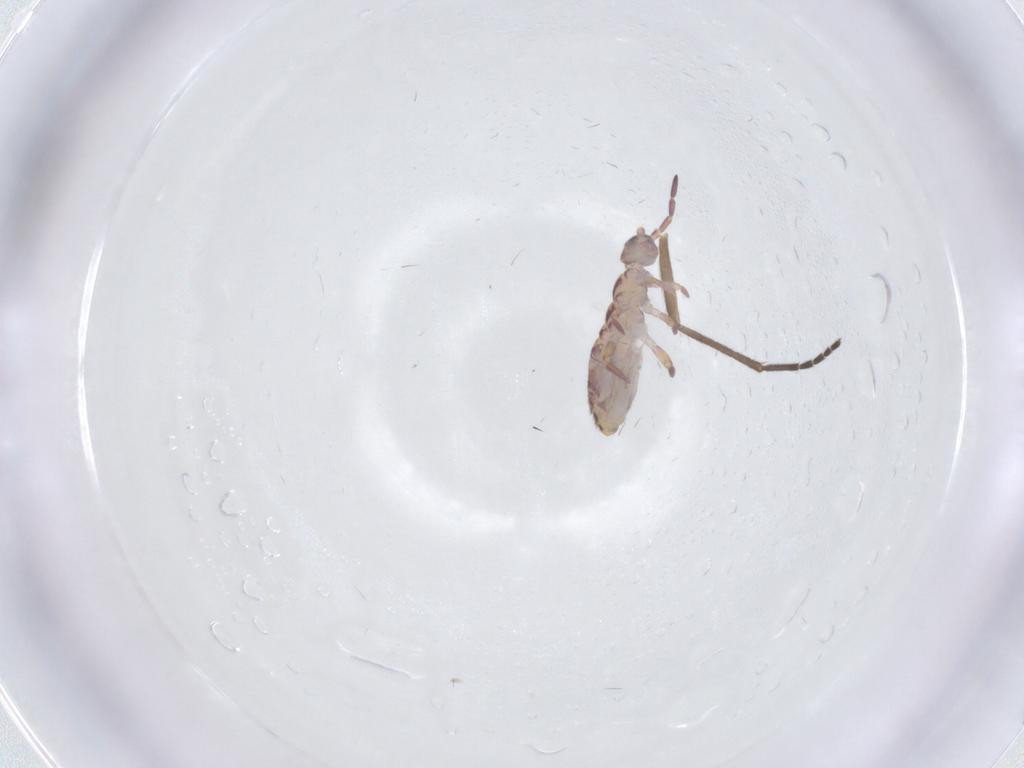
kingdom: Animalia
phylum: Arthropoda
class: Collembola
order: Entomobryomorpha
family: Isotomidae
